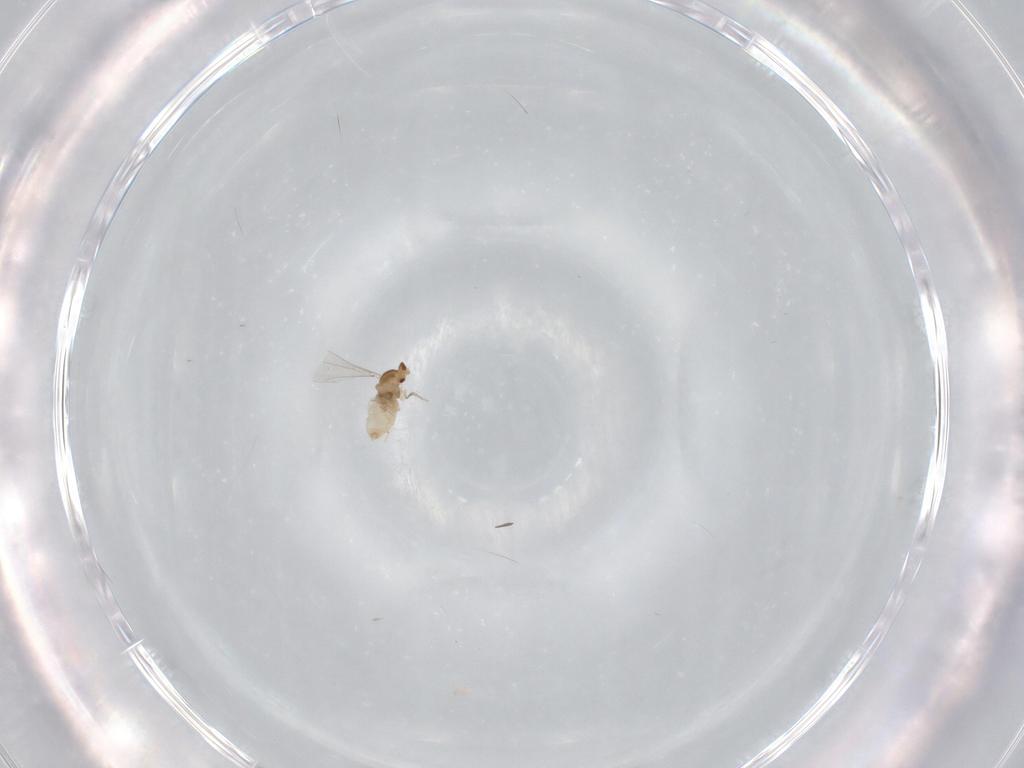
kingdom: Animalia
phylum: Arthropoda
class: Insecta
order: Diptera
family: Cecidomyiidae
